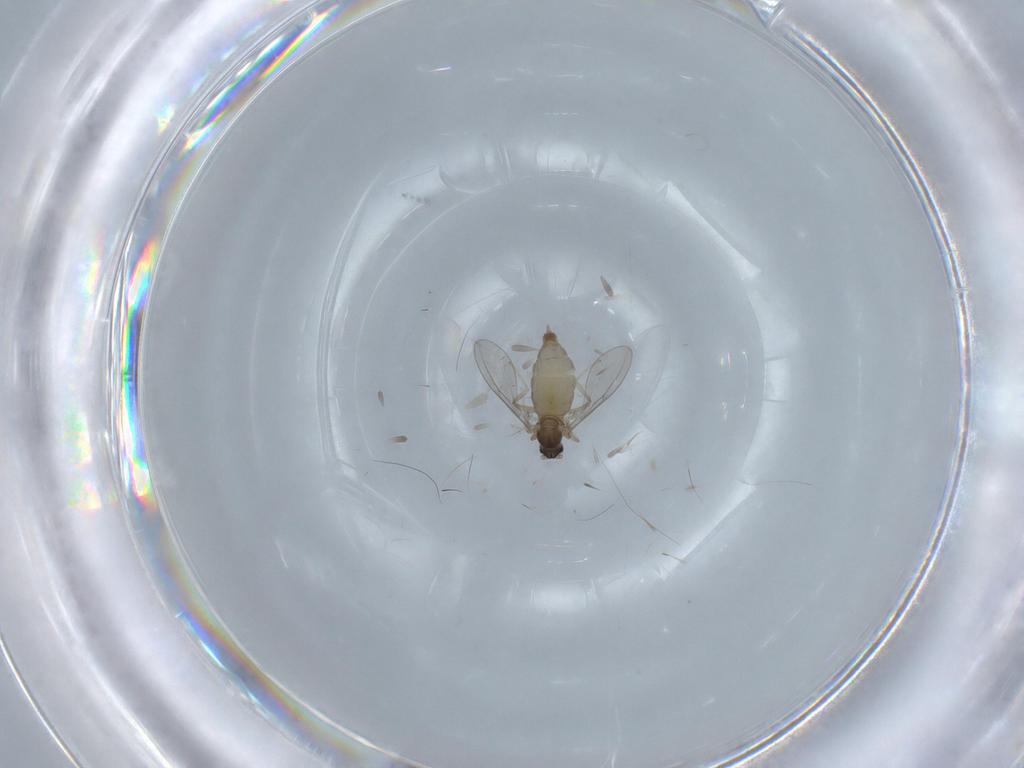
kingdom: Animalia
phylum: Arthropoda
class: Insecta
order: Diptera
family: Cecidomyiidae
